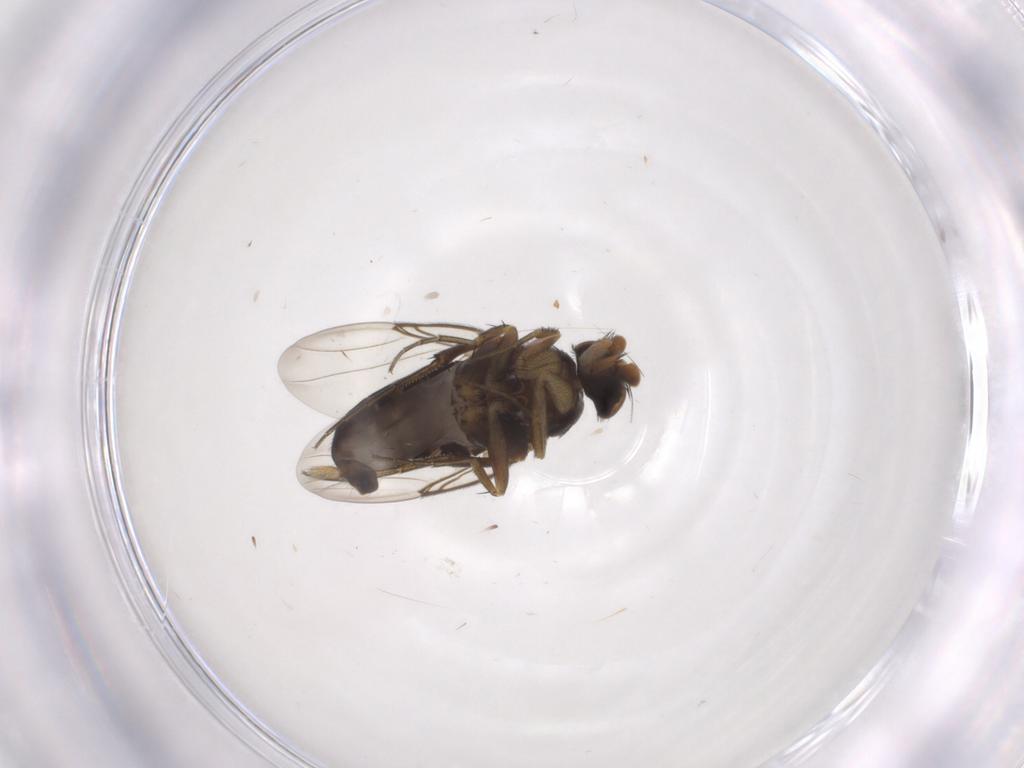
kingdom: Animalia
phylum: Arthropoda
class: Insecta
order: Diptera
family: Phoridae
